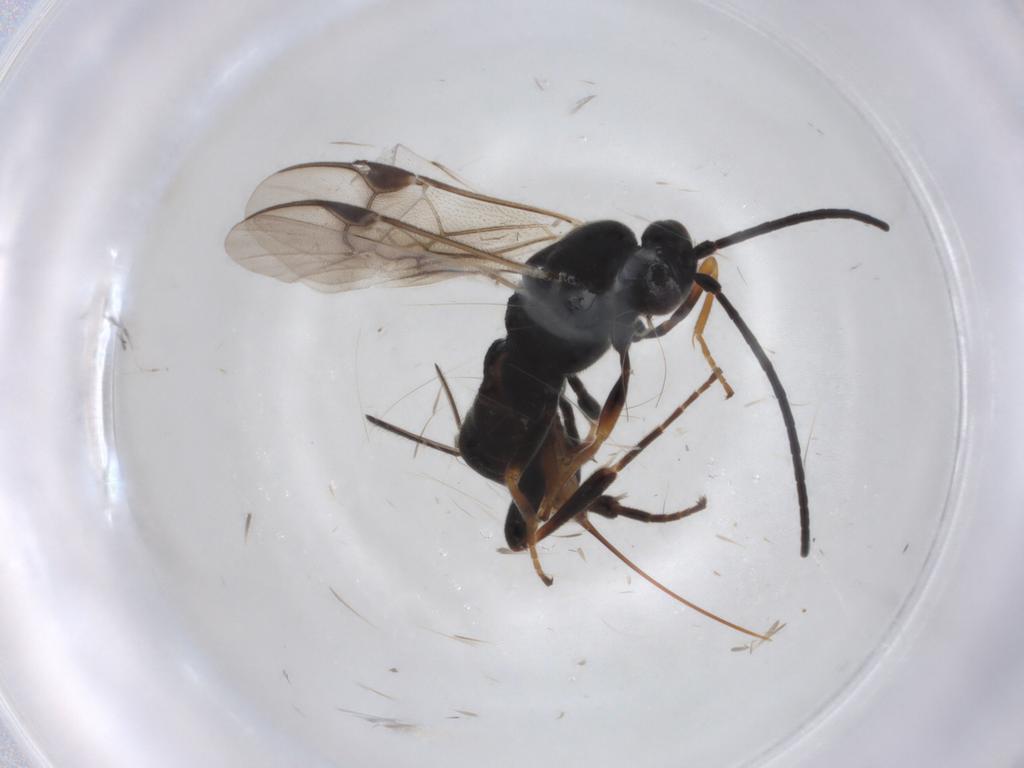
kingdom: Animalia
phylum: Arthropoda
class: Insecta
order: Hymenoptera
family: Braconidae
